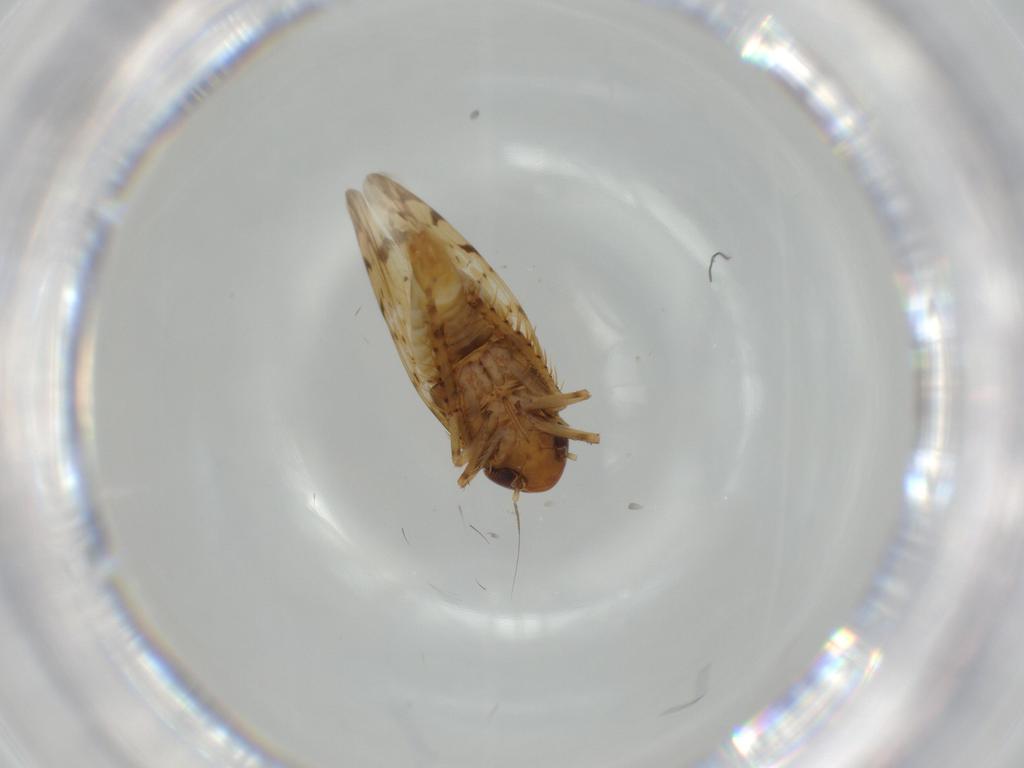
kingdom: Animalia
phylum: Arthropoda
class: Insecta
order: Hemiptera
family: Cicadellidae
